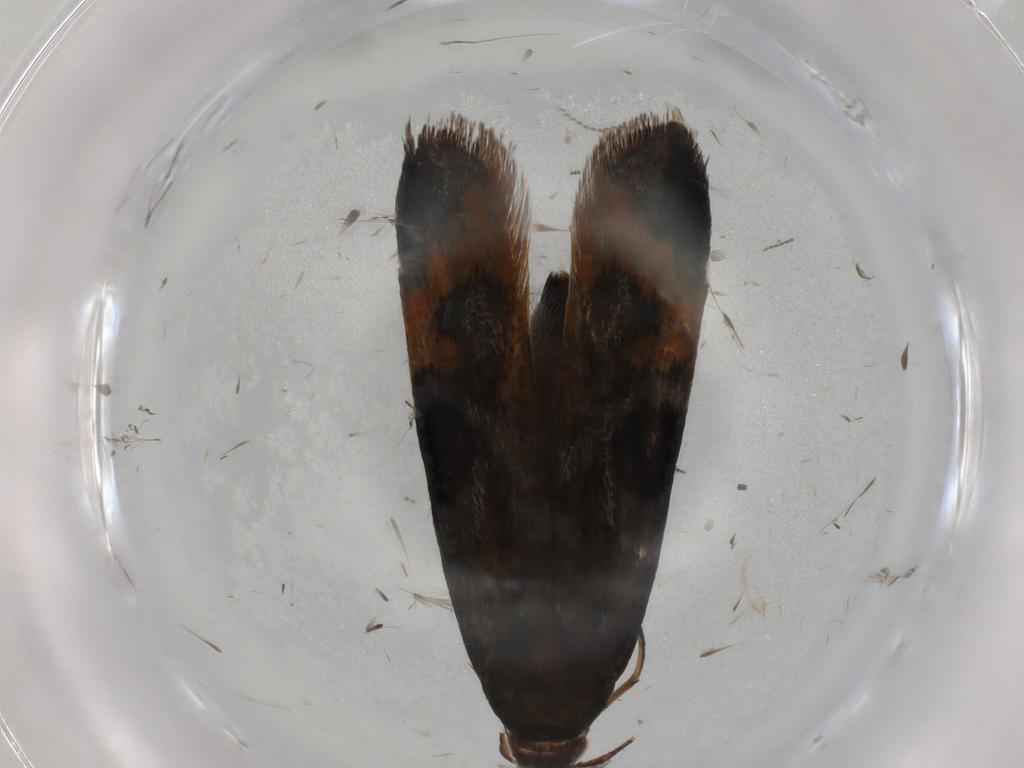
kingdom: Animalia
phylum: Arthropoda
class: Insecta
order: Lepidoptera
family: Gelechiidae
